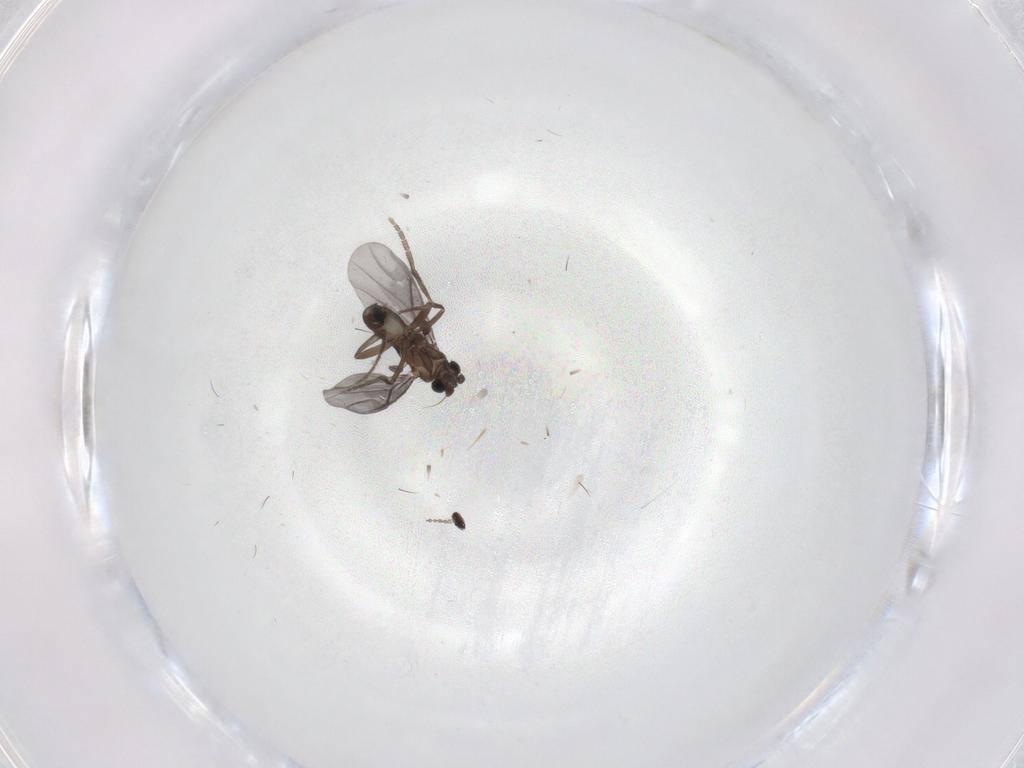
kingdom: Animalia
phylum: Arthropoda
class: Insecta
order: Diptera
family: Phoridae
